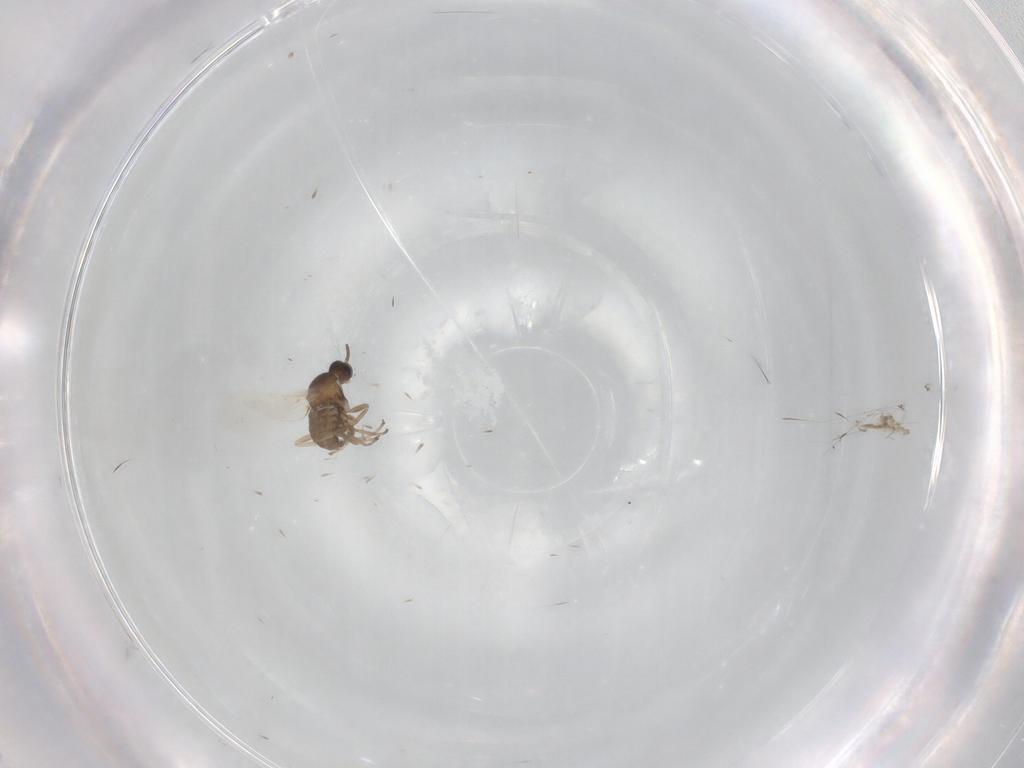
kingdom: Animalia
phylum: Arthropoda
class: Insecta
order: Diptera
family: Cecidomyiidae
